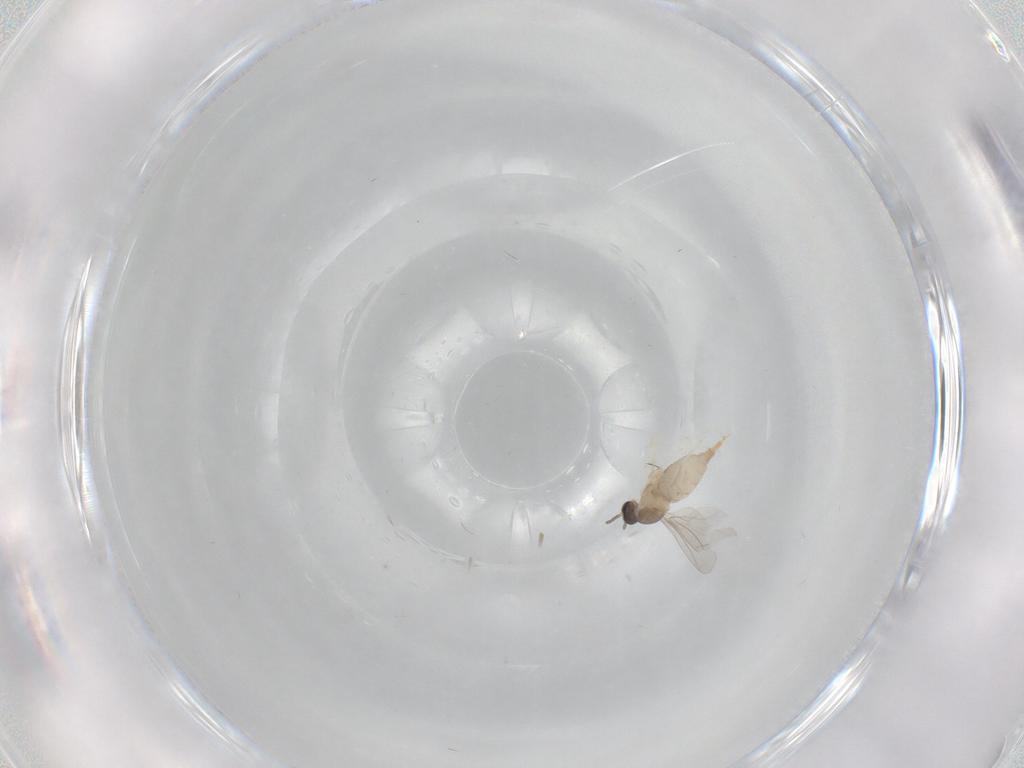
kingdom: Animalia
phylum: Arthropoda
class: Insecta
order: Diptera
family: Cecidomyiidae
